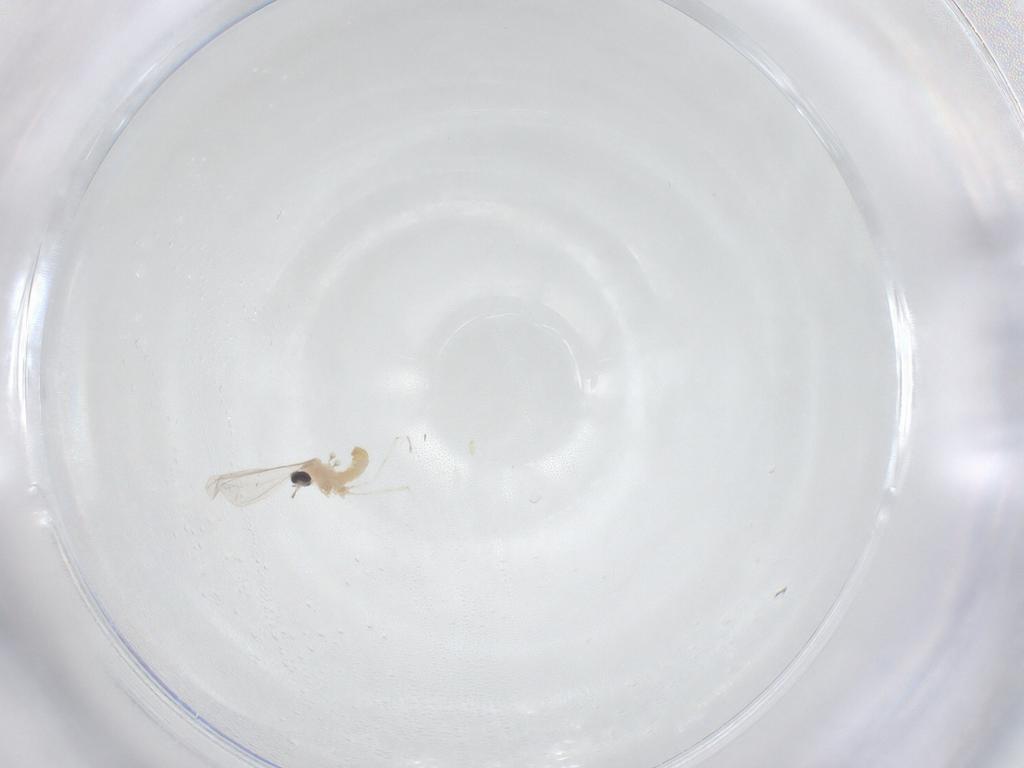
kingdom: Animalia
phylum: Arthropoda
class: Insecta
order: Diptera
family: Cecidomyiidae
